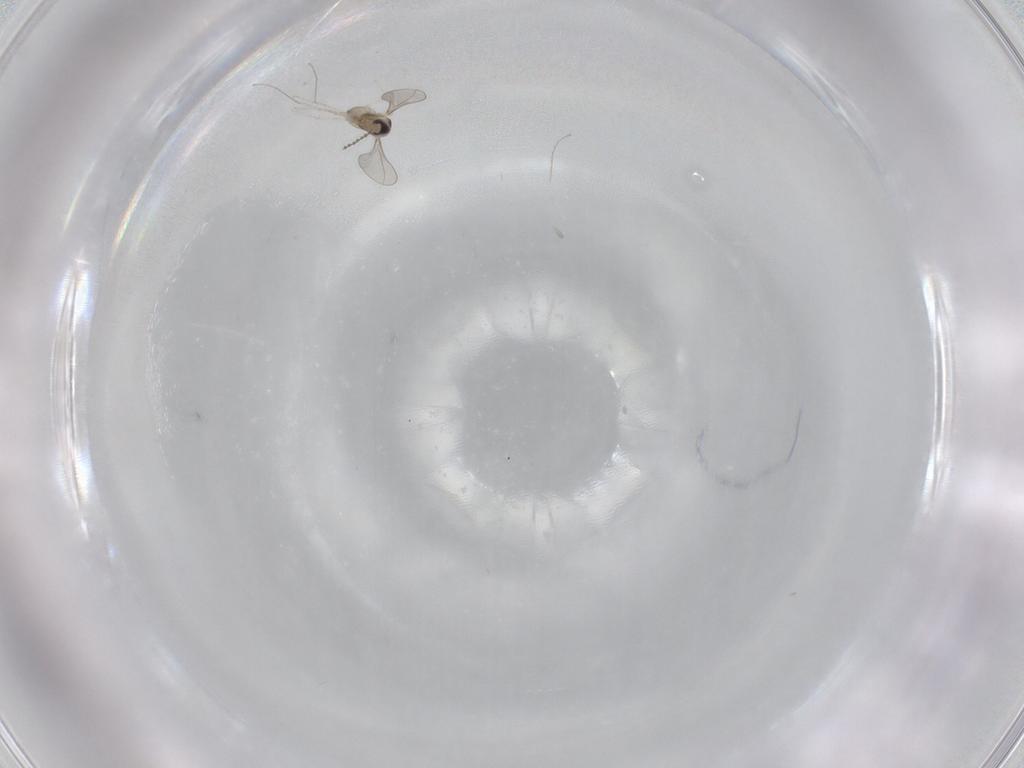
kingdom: Animalia
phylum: Arthropoda
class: Insecta
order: Diptera
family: Cecidomyiidae
